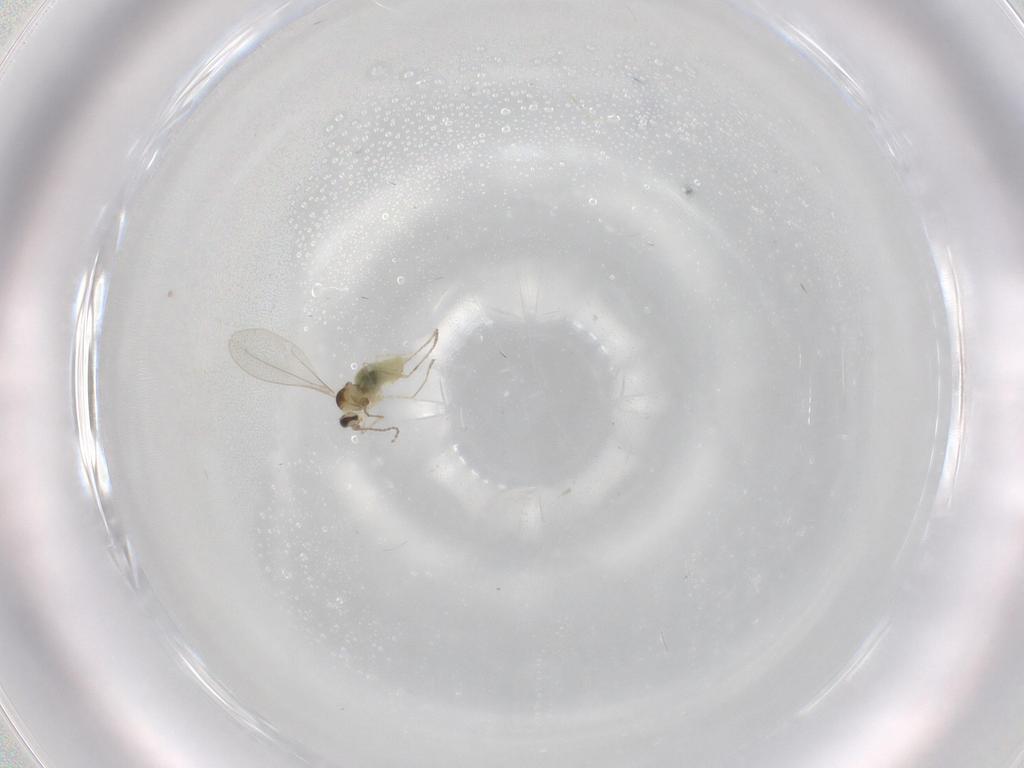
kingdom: Animalia
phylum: Arthropoda
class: Insecta
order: Diptera
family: Cecidomyiidae
